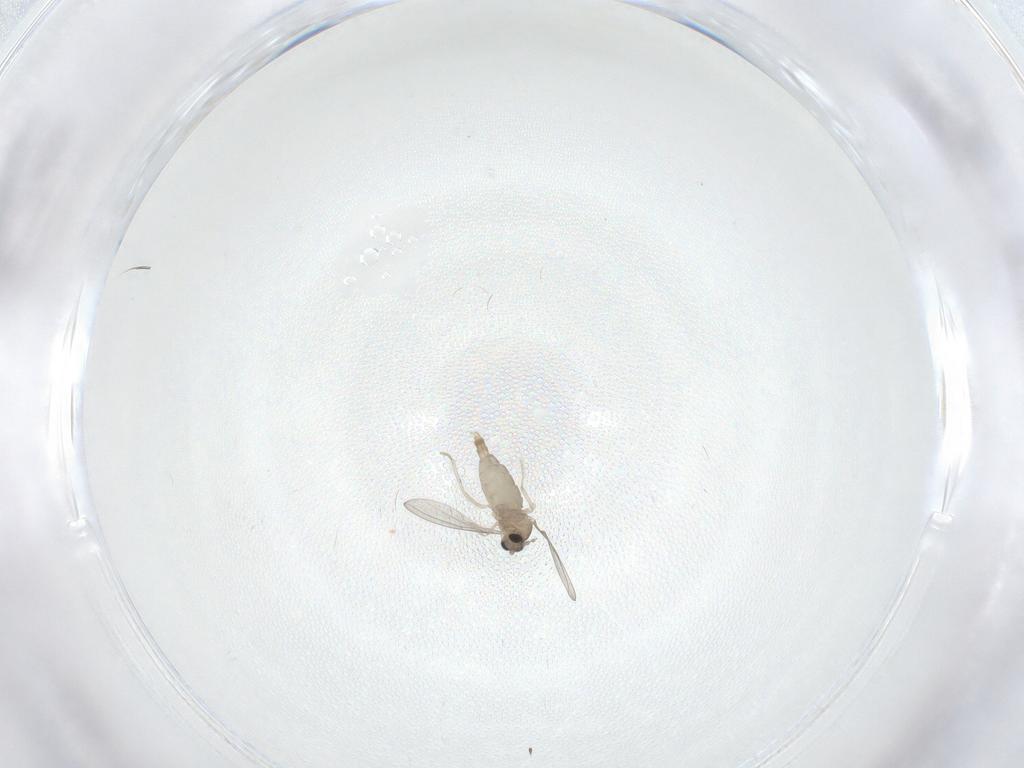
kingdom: Animalia
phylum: Arthropoda
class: Insecta
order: Diptera
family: Cecidomyiidae
